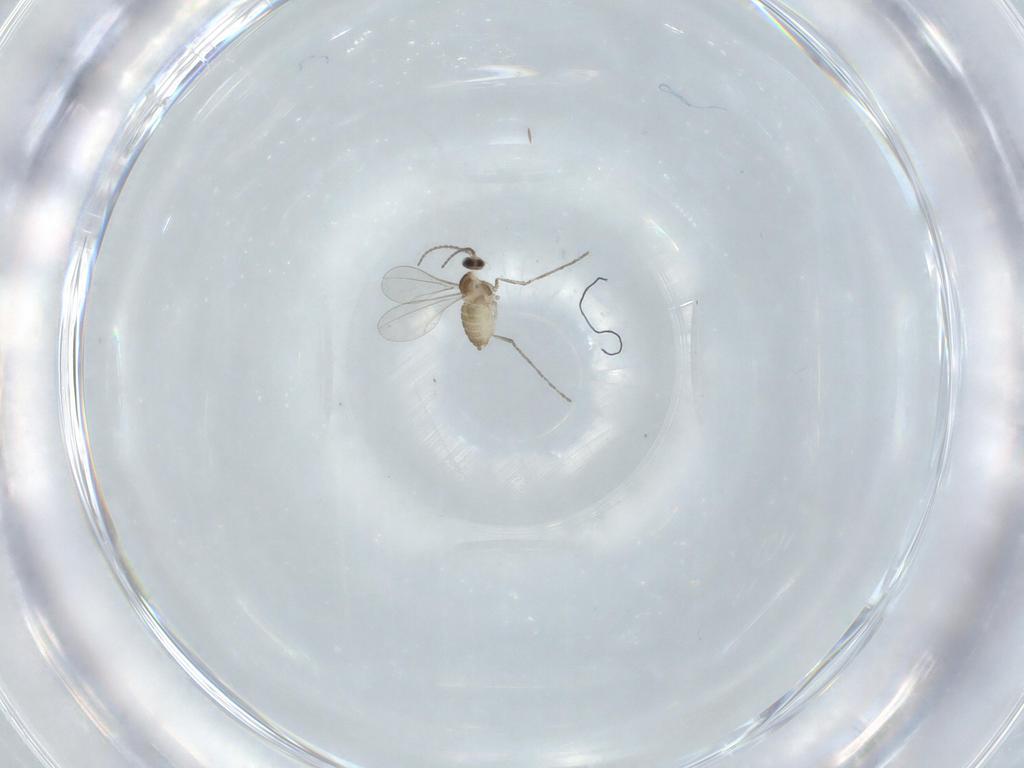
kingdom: Animalia
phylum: Arthropoda
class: Insecta
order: Diptera
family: Cecidomyiidae
